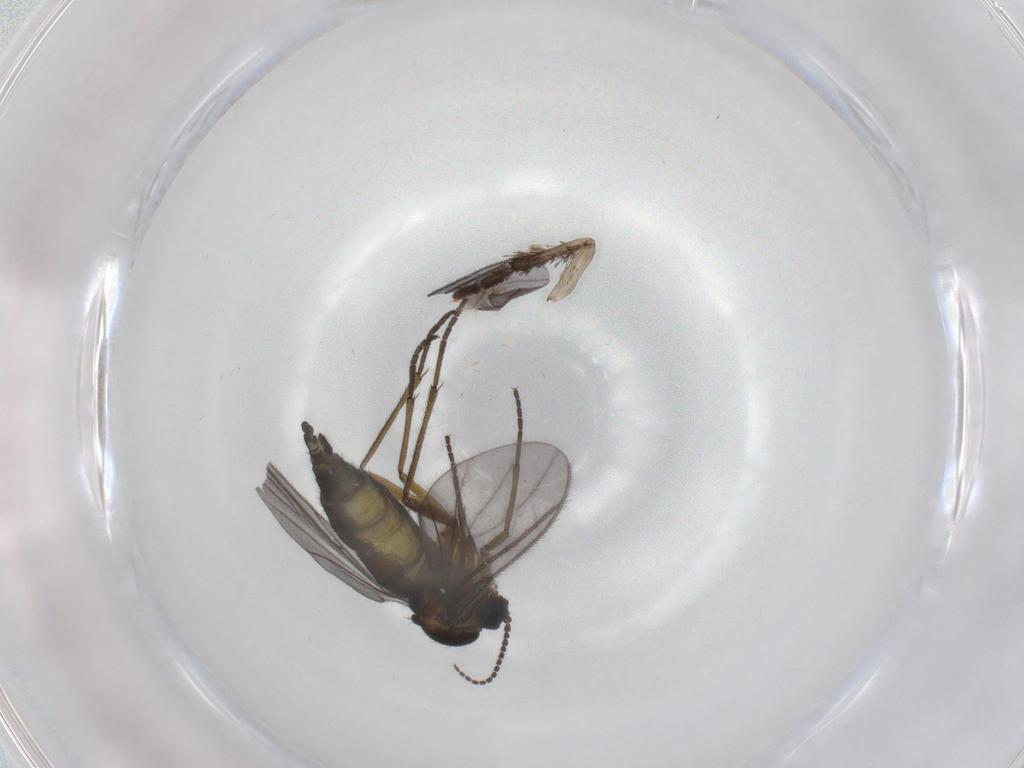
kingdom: Animalia
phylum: Arthropoda
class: Insecta
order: Diptera
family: Sciaridae
